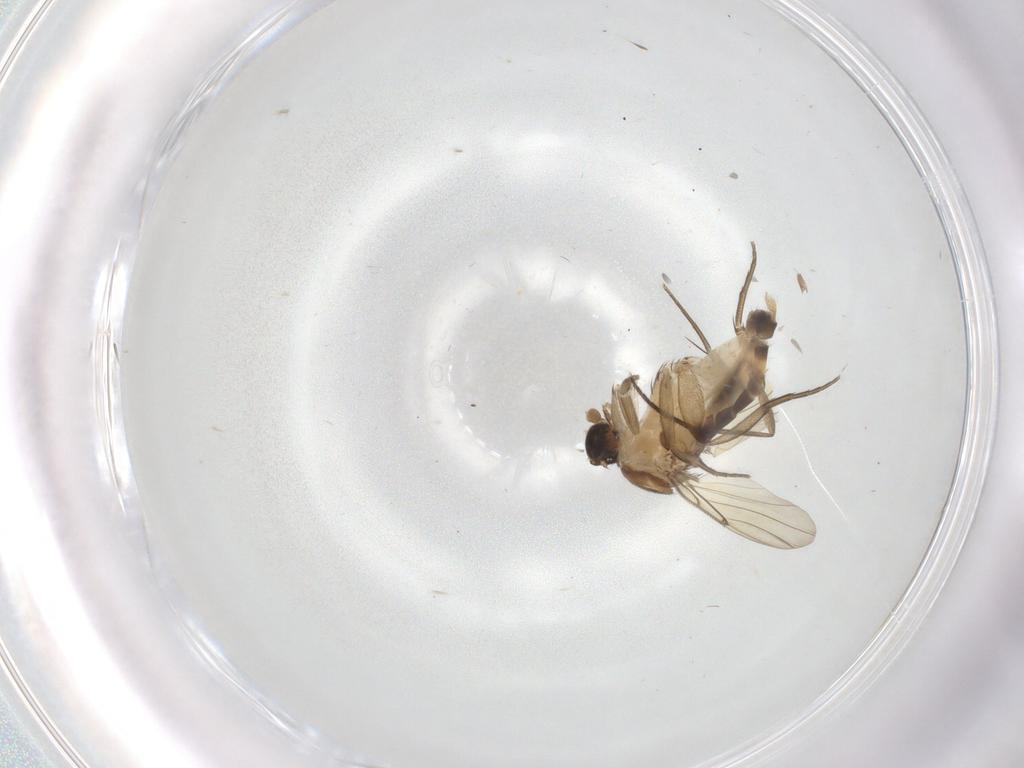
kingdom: Animalia
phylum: Arthropoda
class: Insecta
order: Diptera
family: Ceratopogonidae
